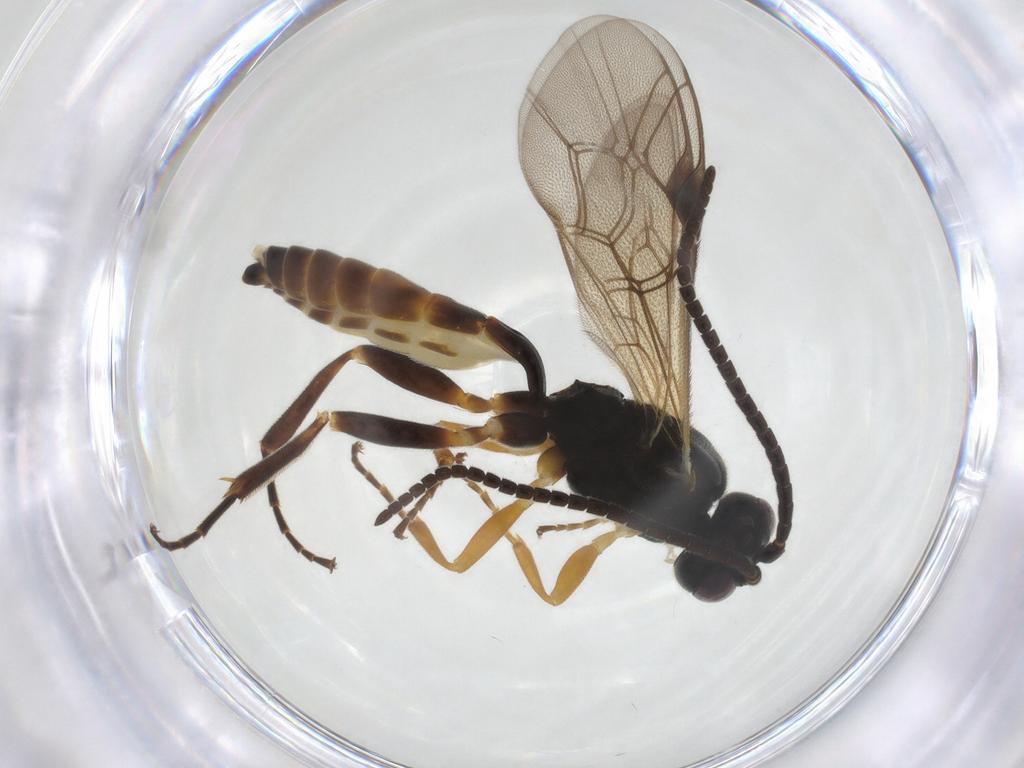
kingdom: Animalia
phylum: Arthropoda
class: Insecta
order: Hymenoptera
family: Ichneumonidae
